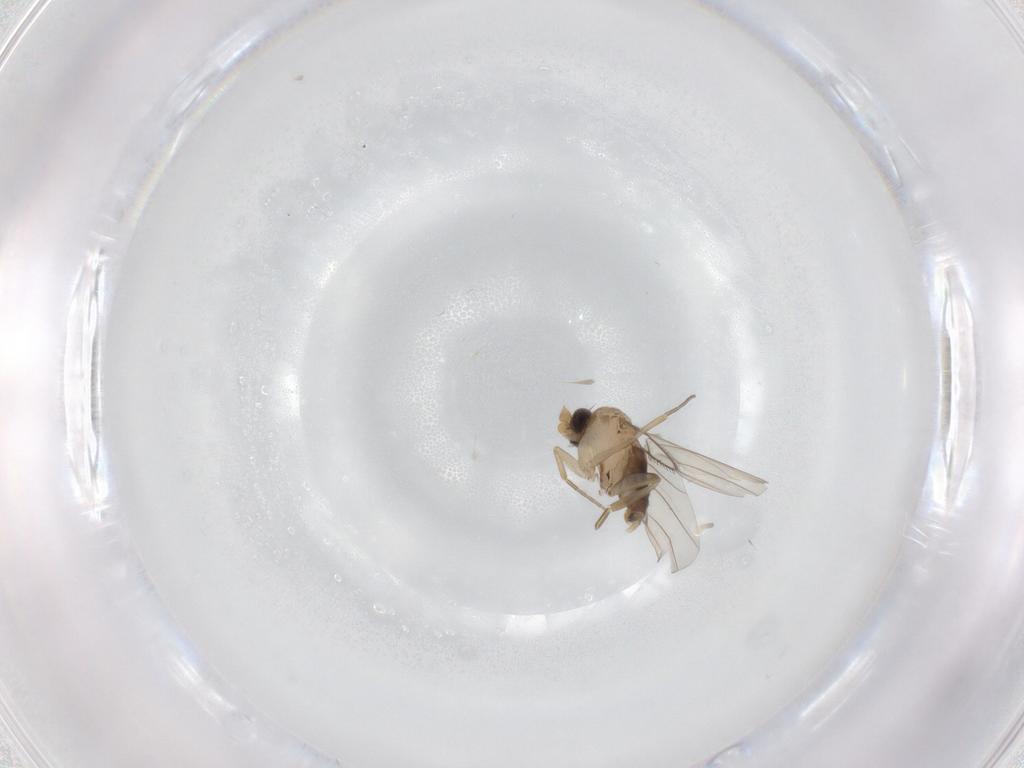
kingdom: Animalia
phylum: Arthropoda
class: Insecta
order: Diptera
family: Phoridae
